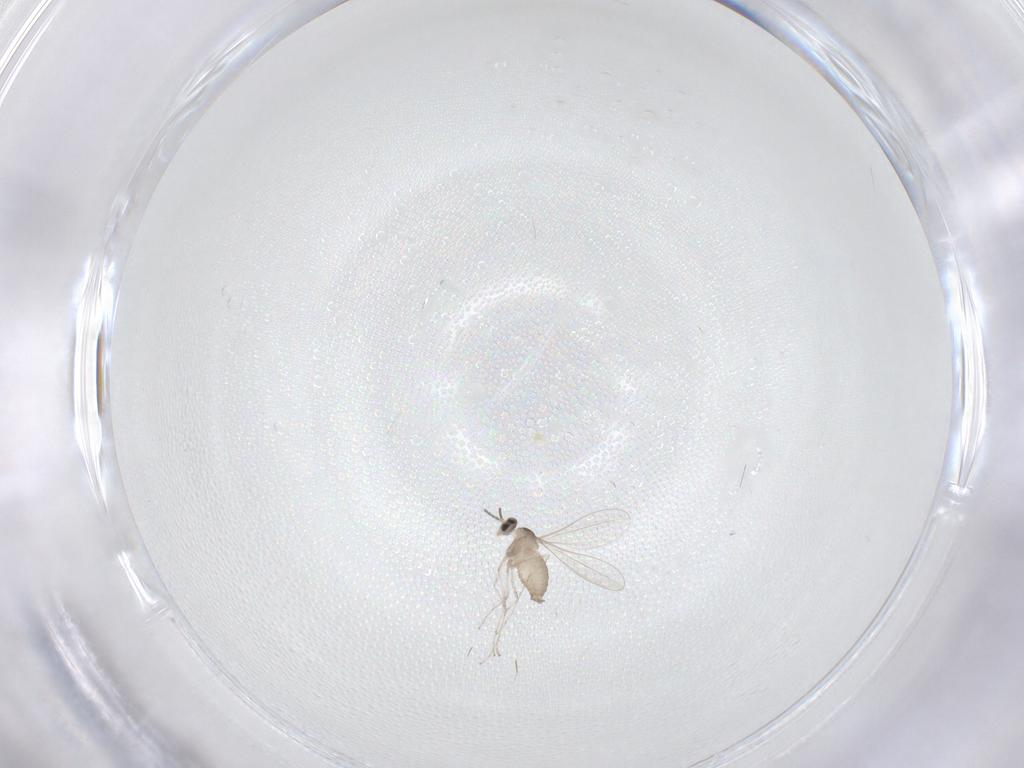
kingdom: Animalia
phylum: Arthropoda
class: Insecta
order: Diptera
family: Cecidomyiidae
